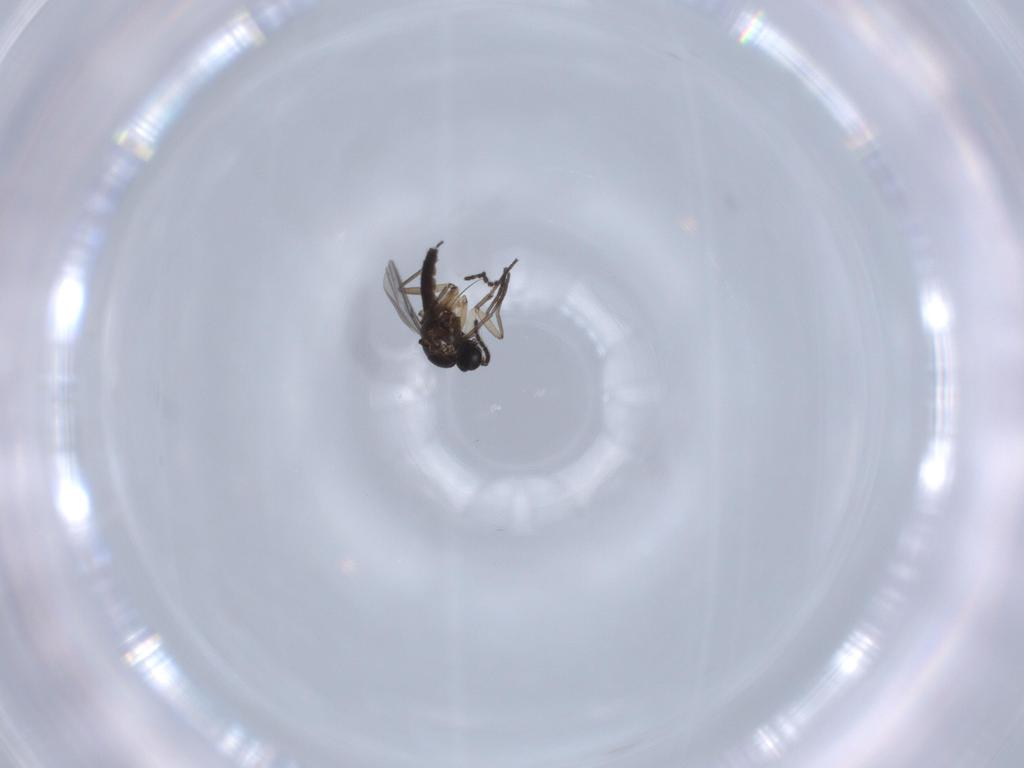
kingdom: Animalia
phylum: Arthropoda
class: Insecta
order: Diptera
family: Sciaridae
